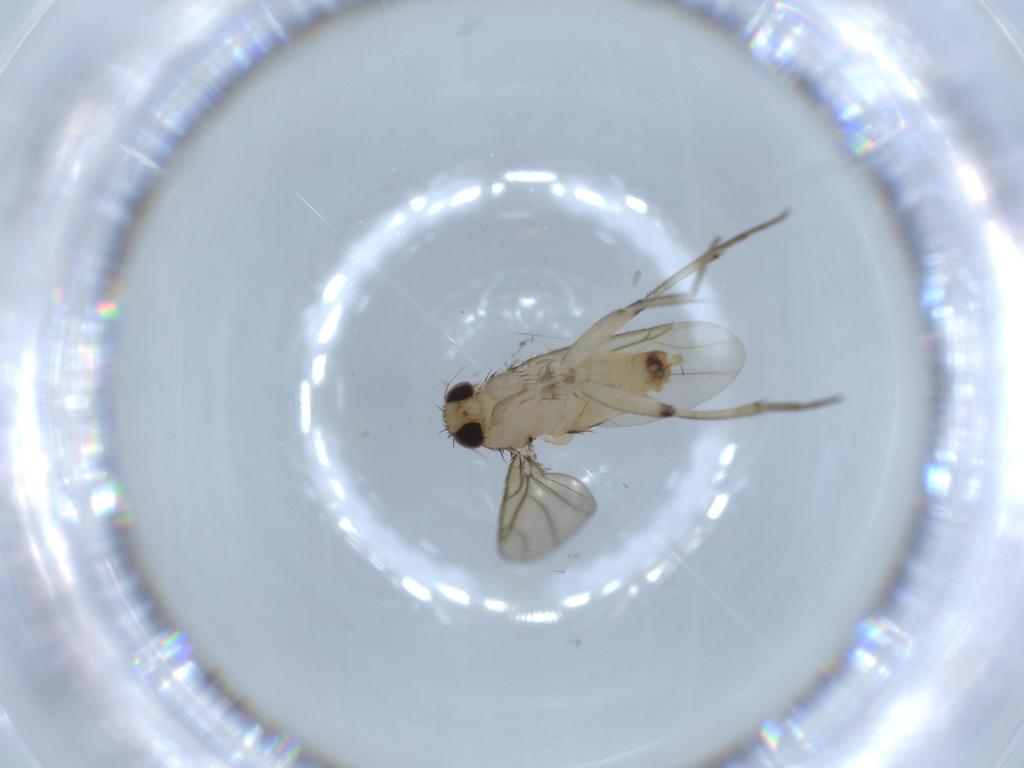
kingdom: Animalia
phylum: Arthropoda
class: Insecta
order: Diptera
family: Phoridae
